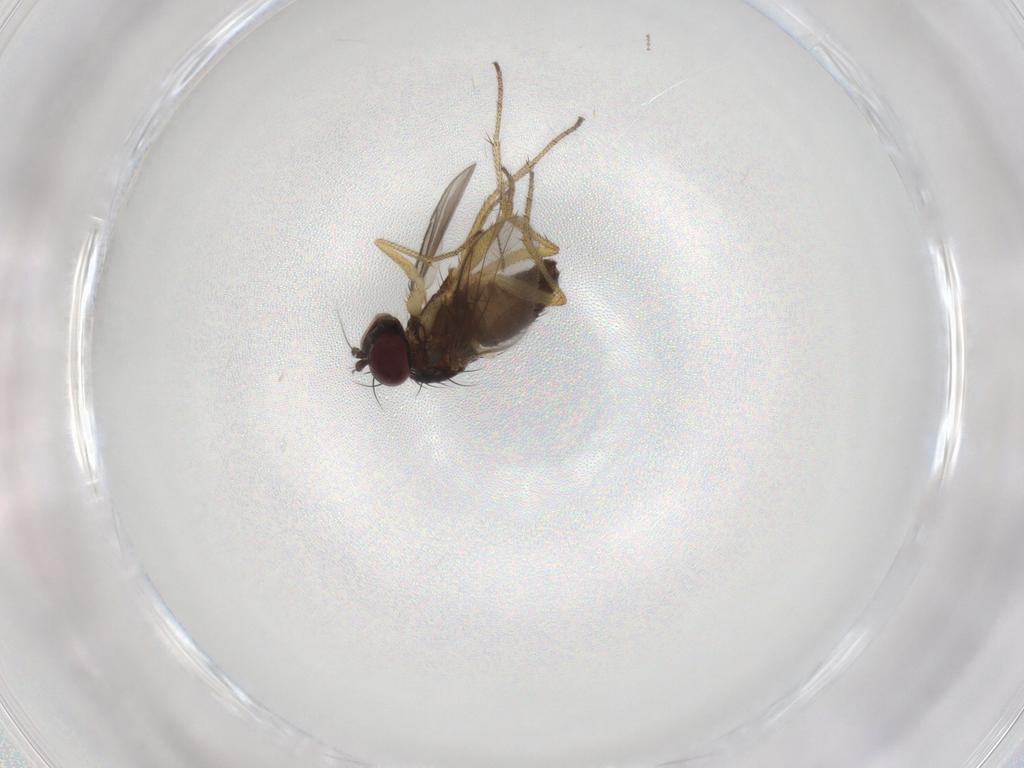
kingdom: Animalia
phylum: Arthropoda
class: Insecta
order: Diptera
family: Dolichopodidae
